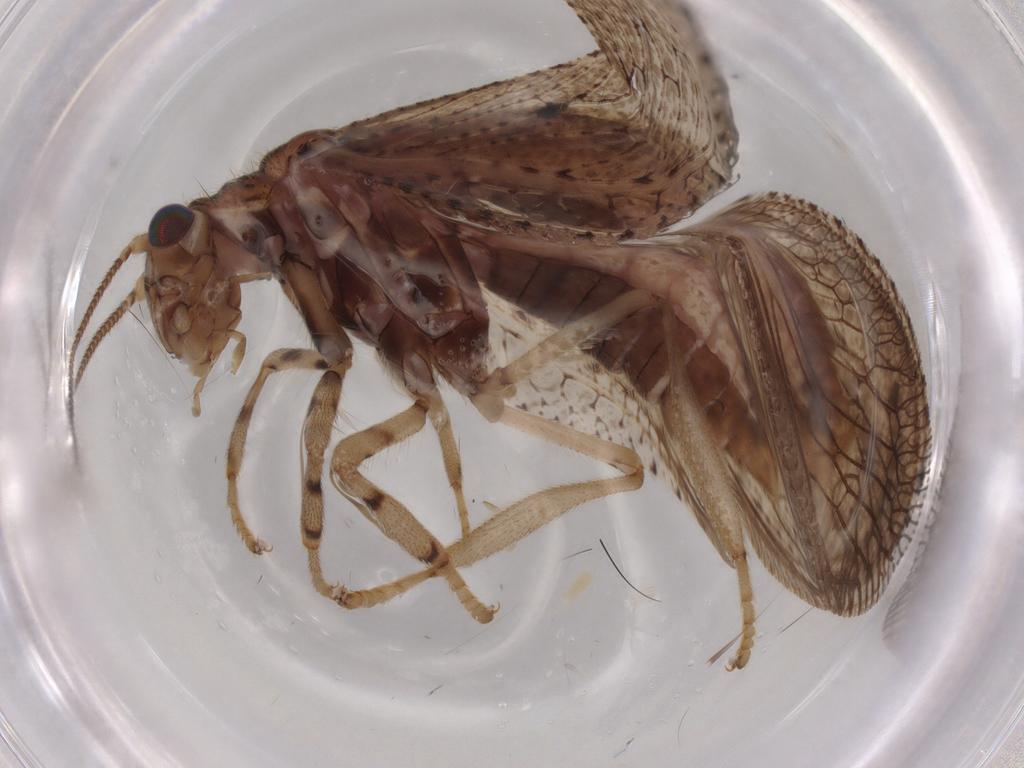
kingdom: Animalia
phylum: Arthropoda
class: Insecta
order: Neuroptera
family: Hemerobiidae
